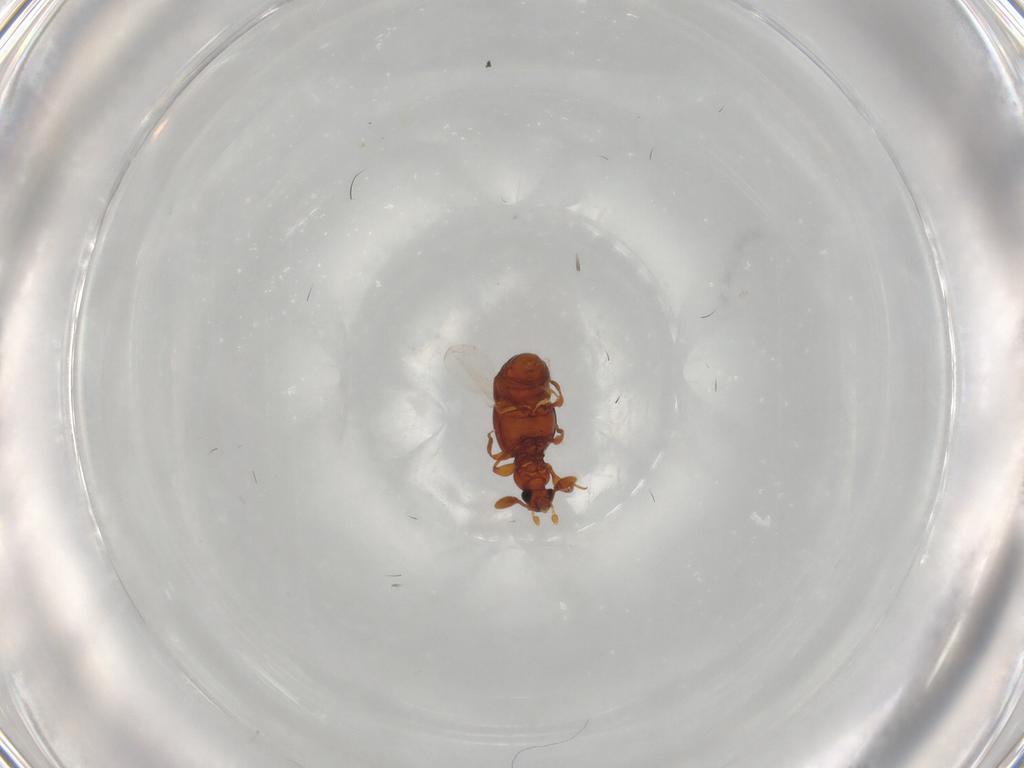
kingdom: Animalia
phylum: Arthropoda
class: Insecta
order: Coleoptera
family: Staphylinidae
